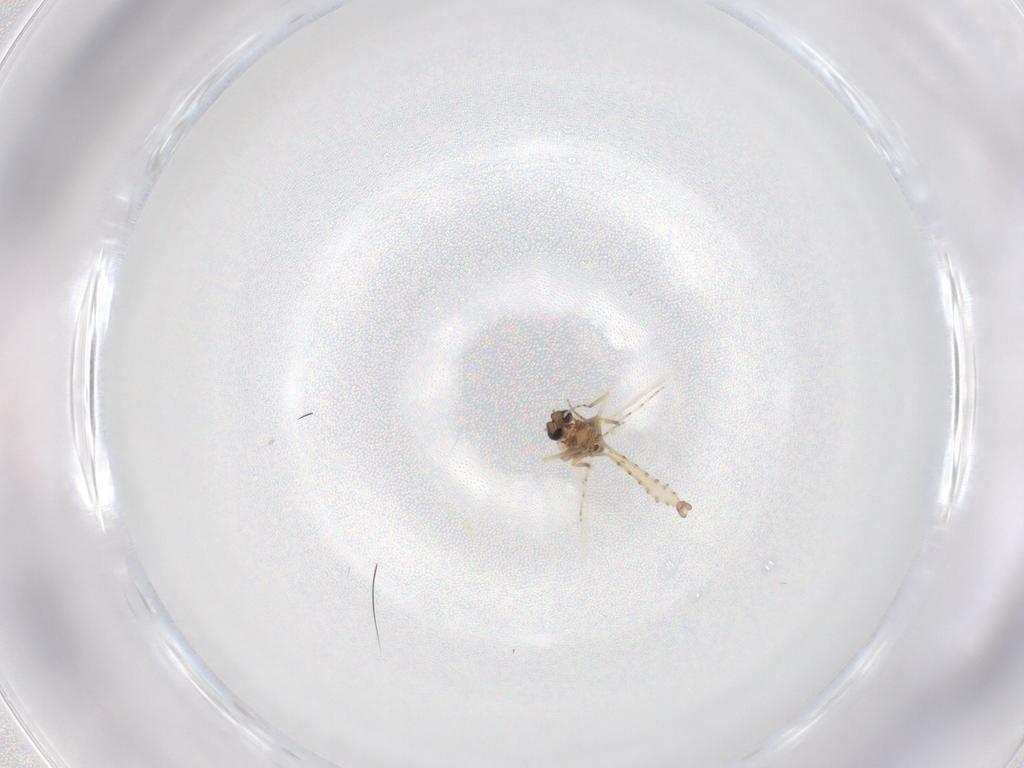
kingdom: Animalia
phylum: Arthropoda
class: Insecta
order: Diptera
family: Ceratopogonidae
